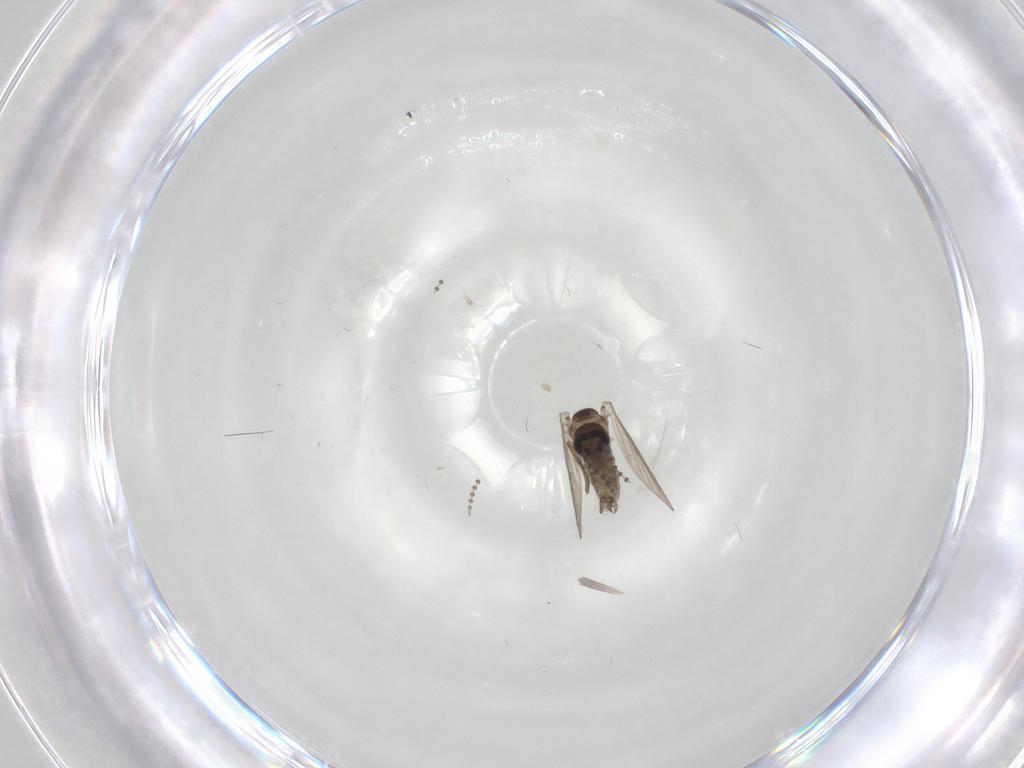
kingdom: Animalia
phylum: Arthropoda
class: Insecta
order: Diptera
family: Psychodidae
